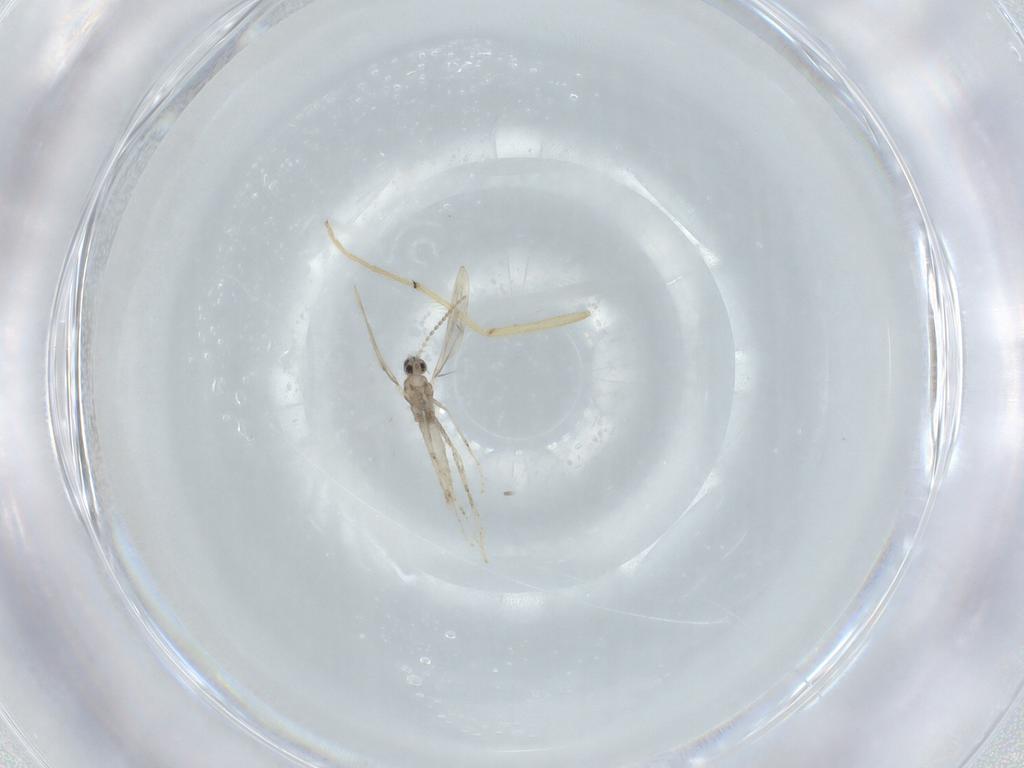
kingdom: Animalia
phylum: Arthropoda
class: Insecta
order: Diptera
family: Cecidomyiidae
